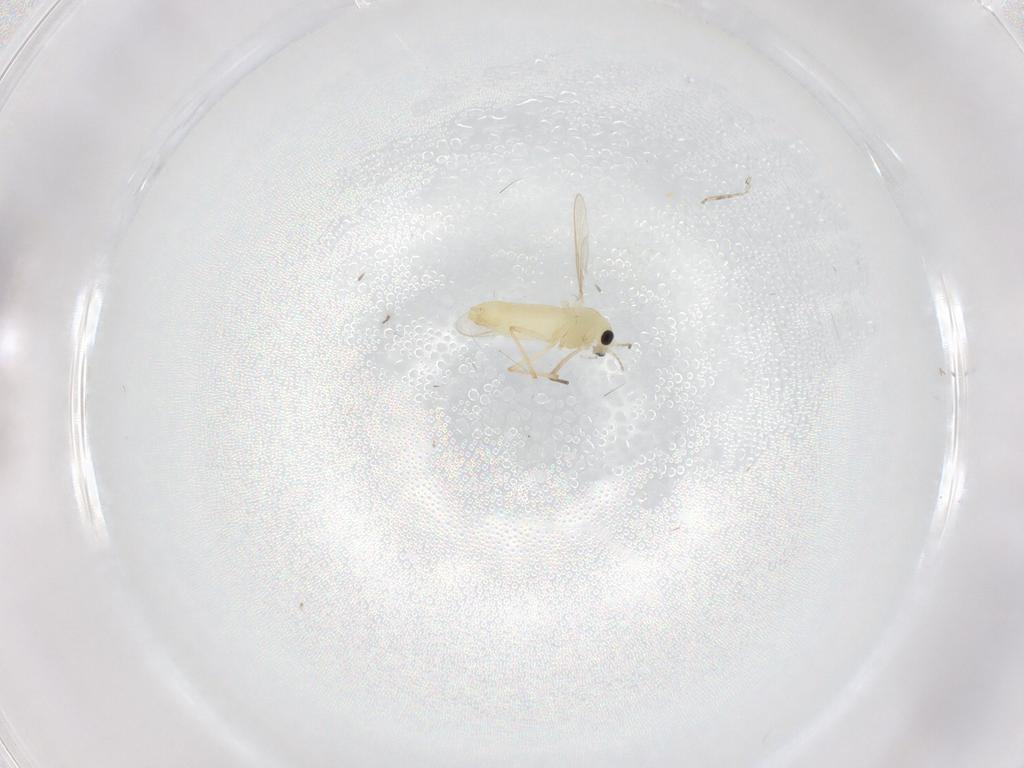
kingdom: Animalia
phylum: Arthropoda
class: Insecta
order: Diptera
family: Chironomidae
